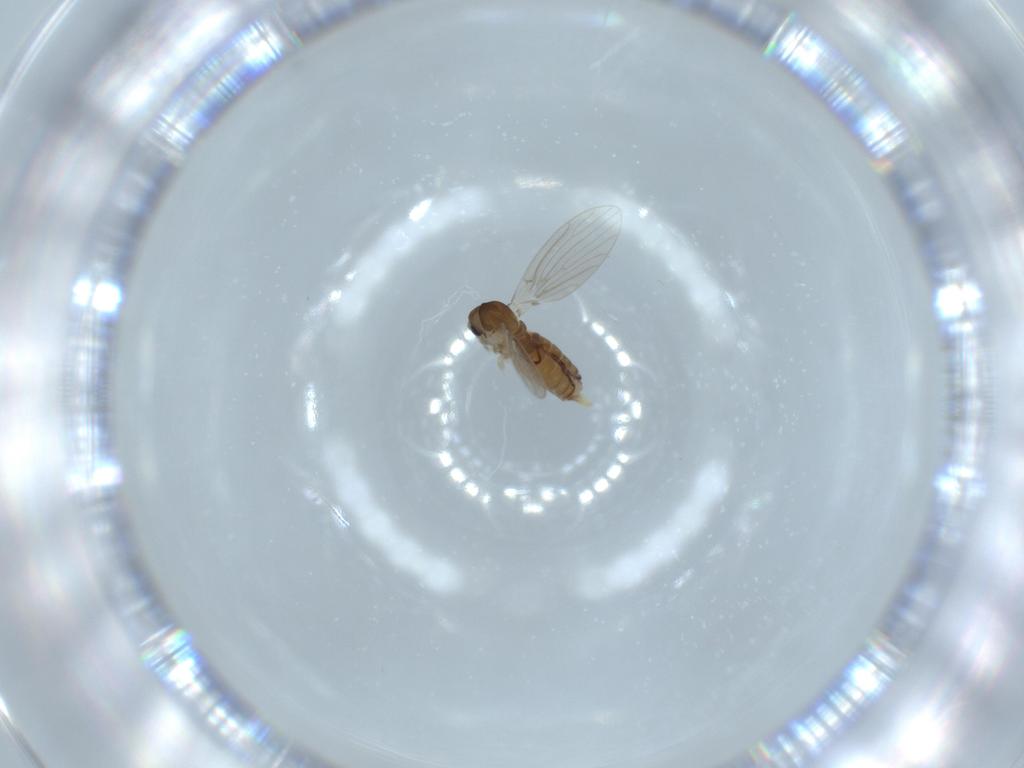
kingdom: Animalia
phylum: Arthropoda
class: Insecta
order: Diptera
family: Psychodidae
